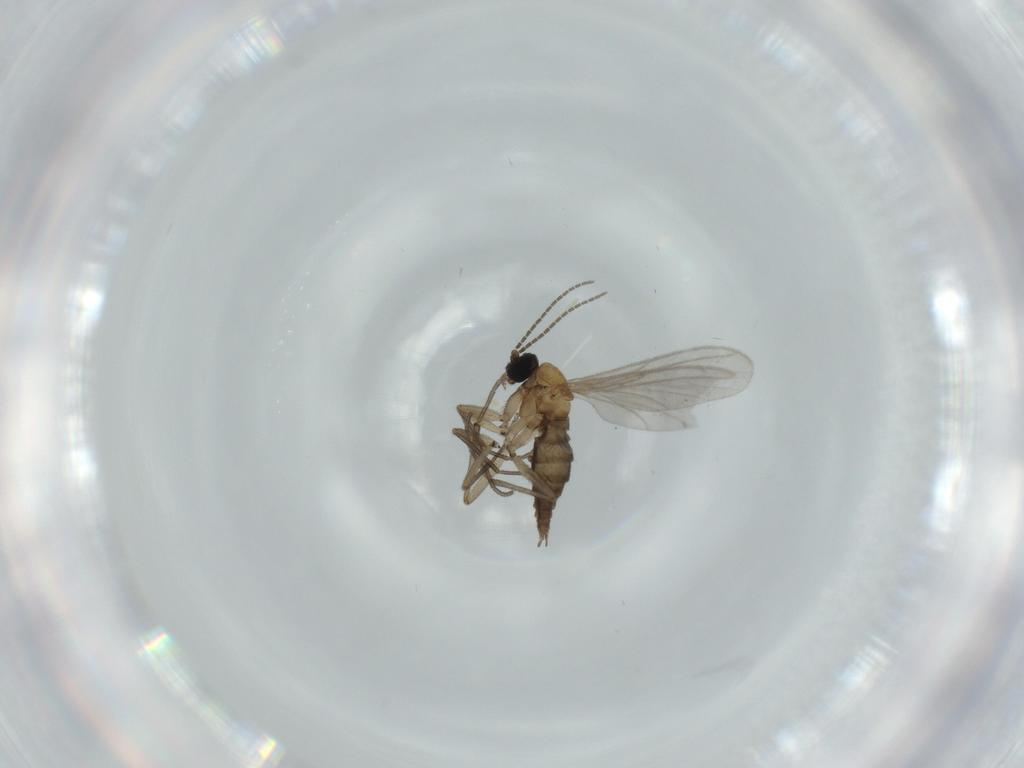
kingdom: Animalia
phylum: Arthropoda
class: Insecta
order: Diptera
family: Sciaridae
